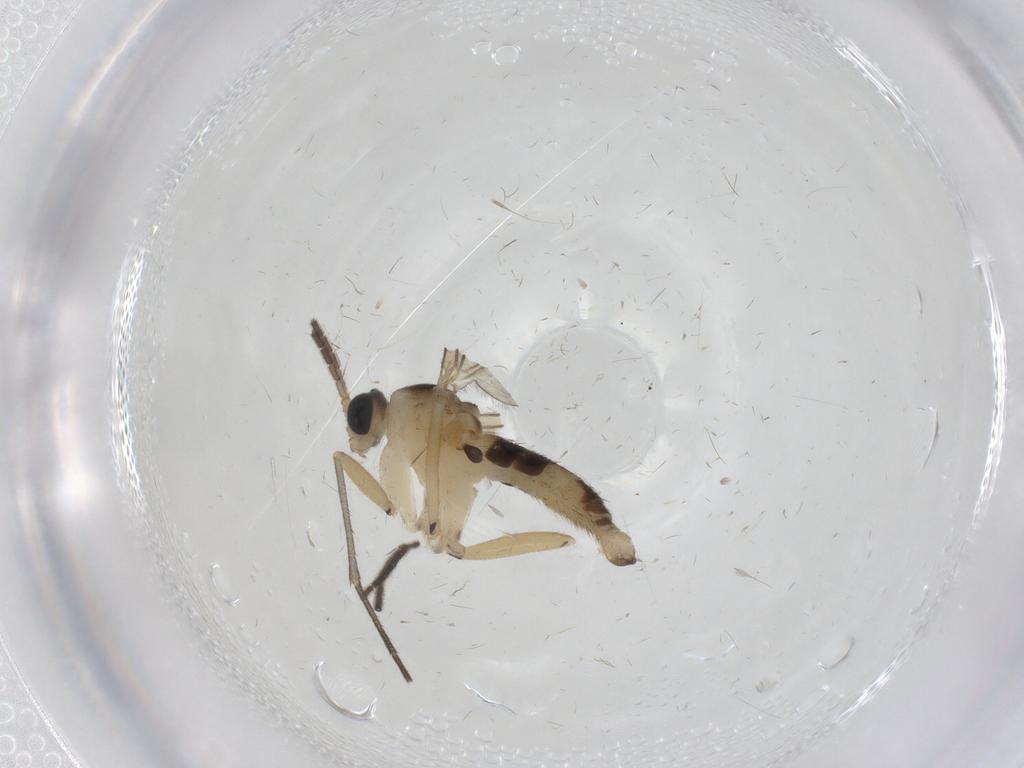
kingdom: Animalia
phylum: Arthropoda
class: Insecta
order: Diptera
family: Sciaridae
